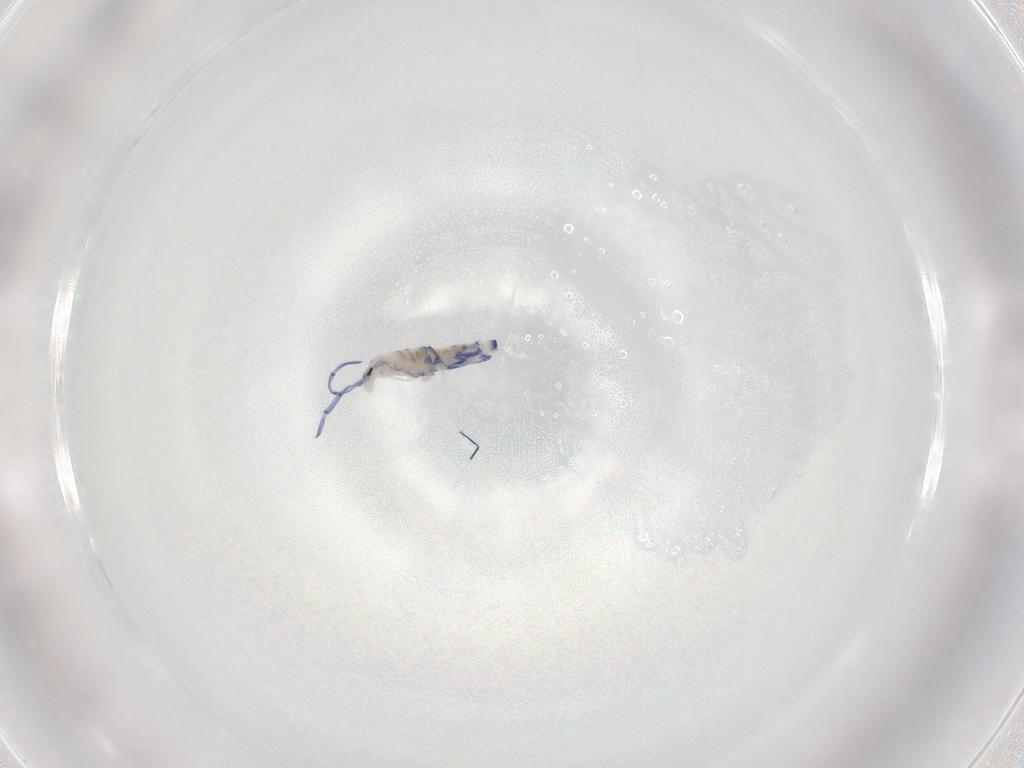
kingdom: Animalia
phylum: Arthropoda
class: Collembola
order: Entomobryomorpha
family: Entomobryidae
